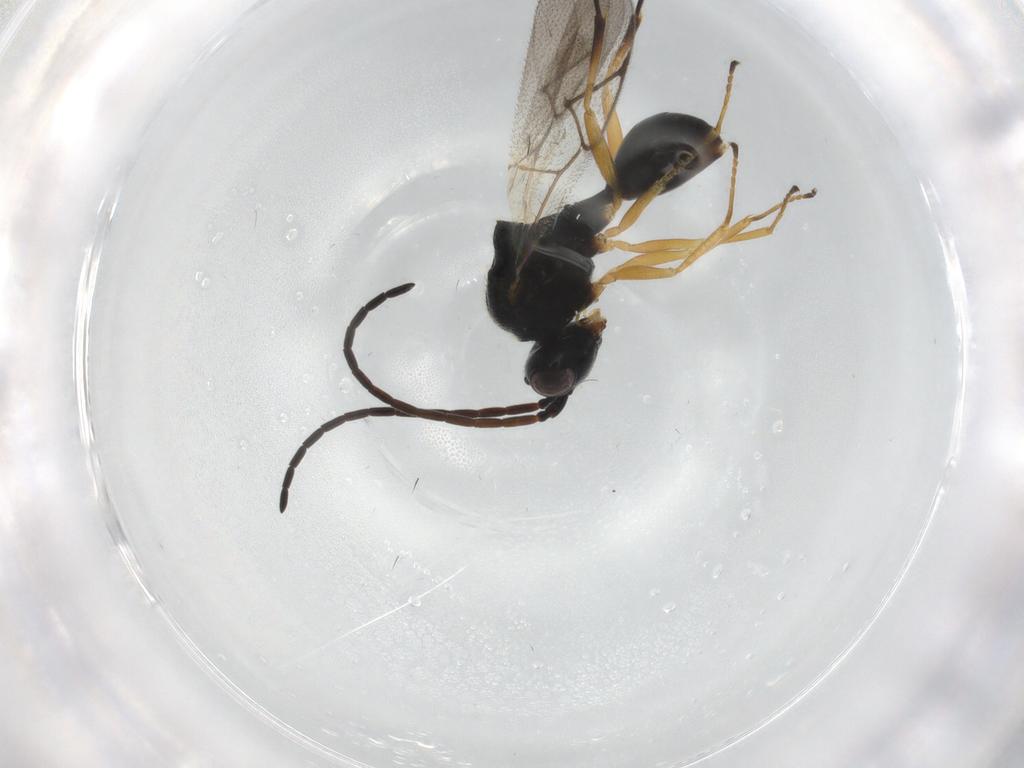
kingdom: Animalia
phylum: Arthropoda
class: Insecta
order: Hymenoptera
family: Figitidae
